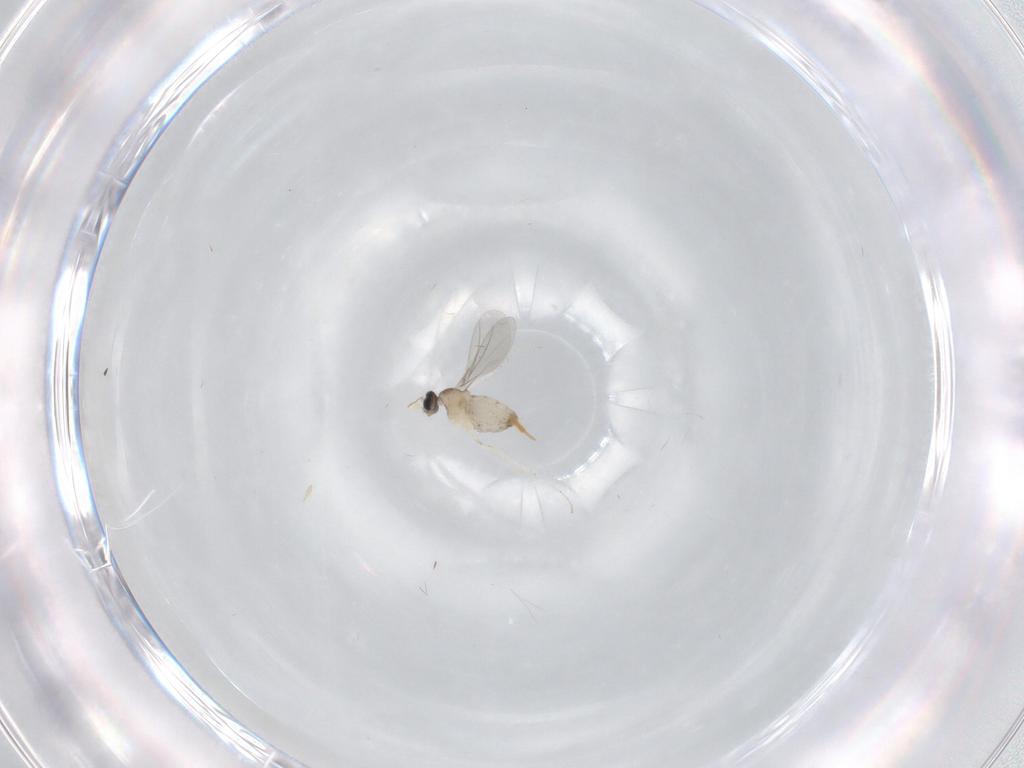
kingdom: Animalia
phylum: Arthropoda
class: Insecta
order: Diptera
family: Cecidomyiidae
